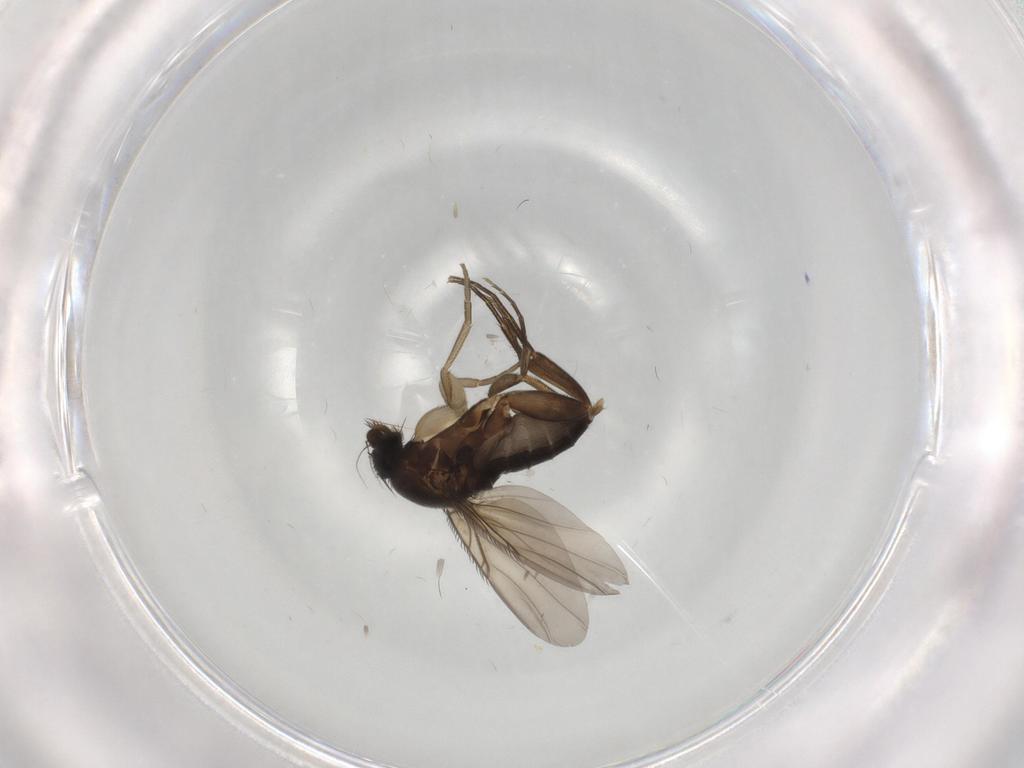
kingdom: Animalia
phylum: Arthropoda
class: Insecta
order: Diptera
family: Phoridae
